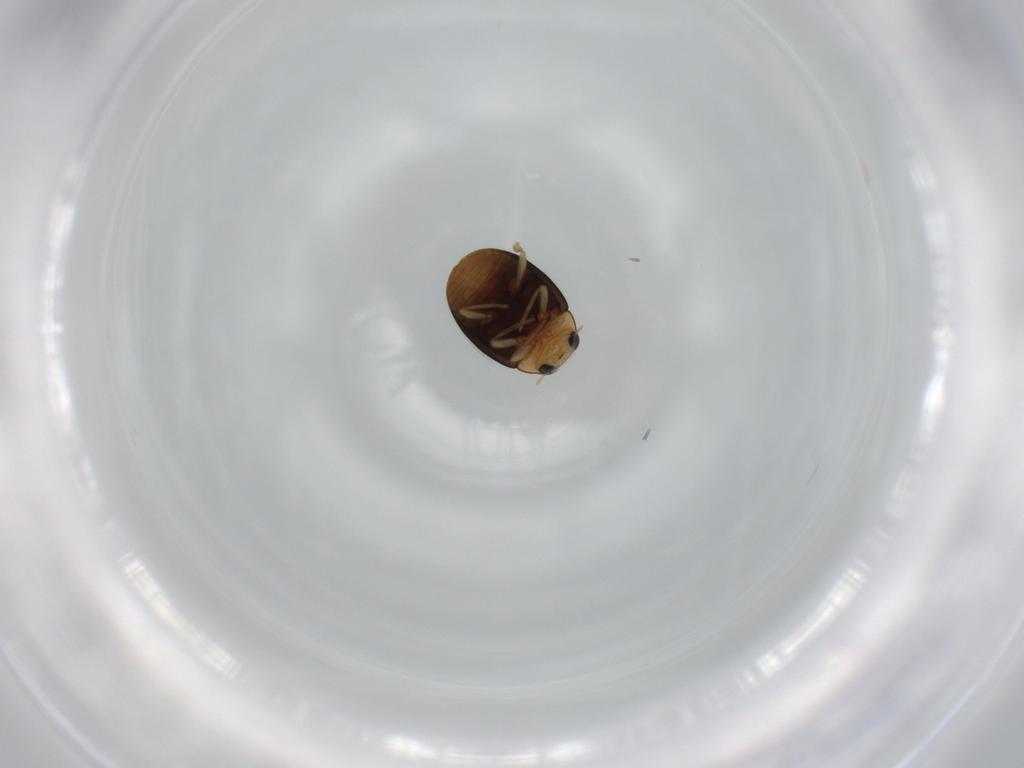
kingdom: Animalia
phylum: Arthropoda
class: Insecta
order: Coleoptera
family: Coccinellidae
